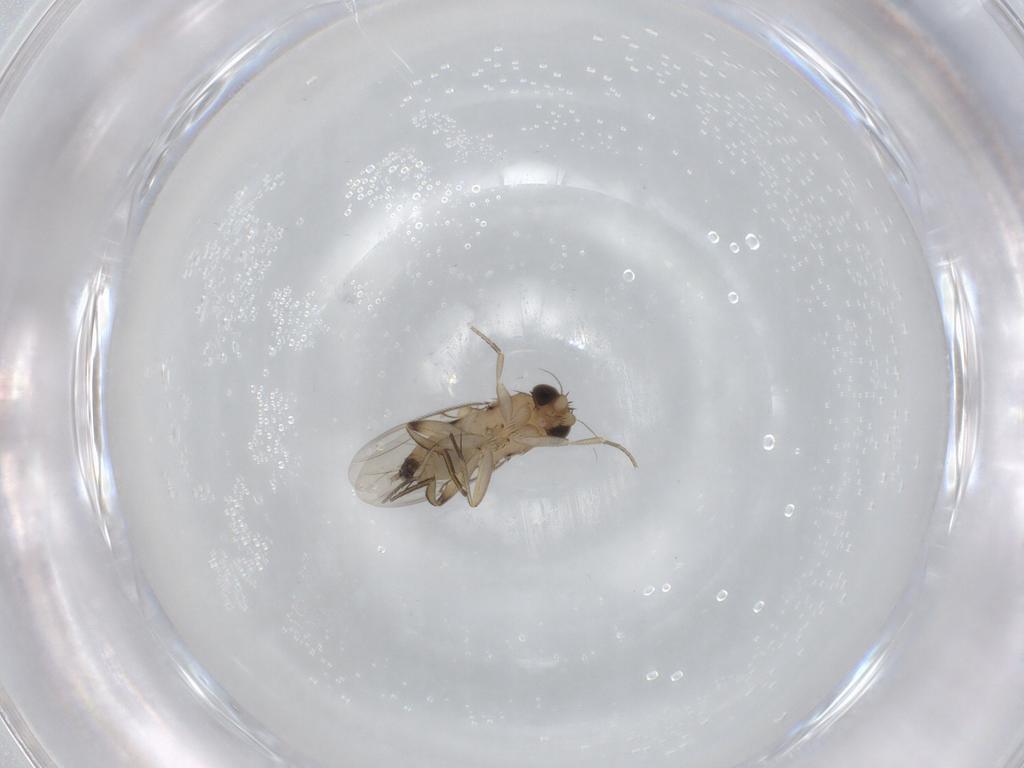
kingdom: Animalia
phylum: Arthropoda
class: Insecta
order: Diptera
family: Phoridae
